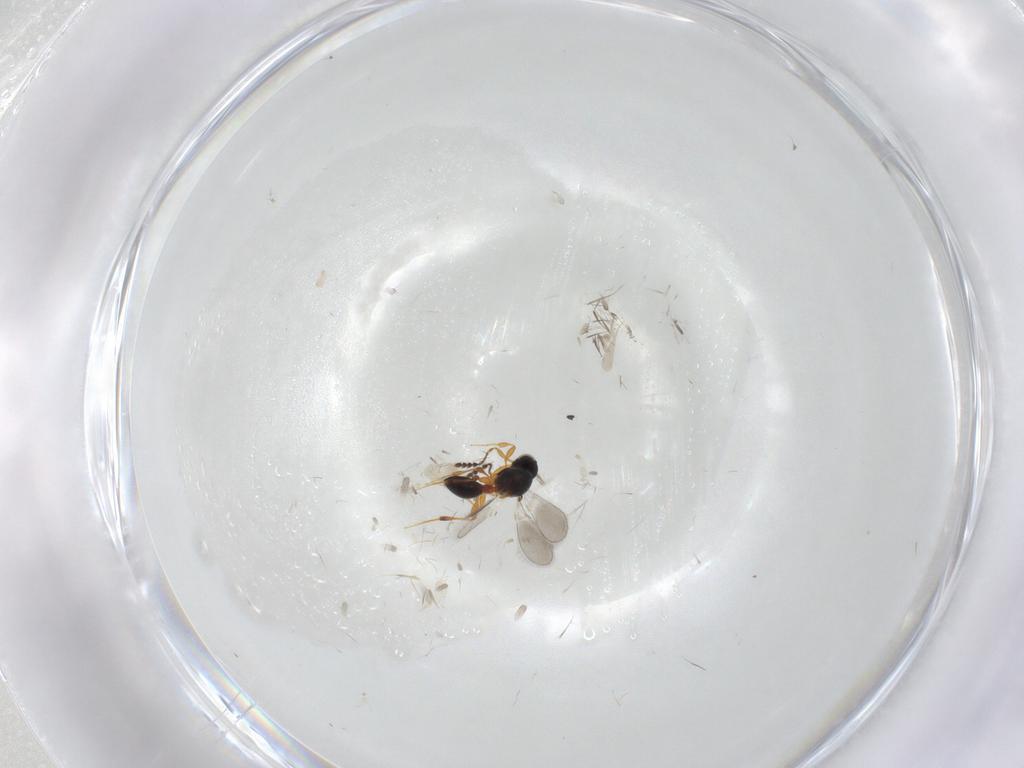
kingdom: Animalia
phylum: Arthropoda
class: Insecta
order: Hymenoptera
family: Platygastridae
